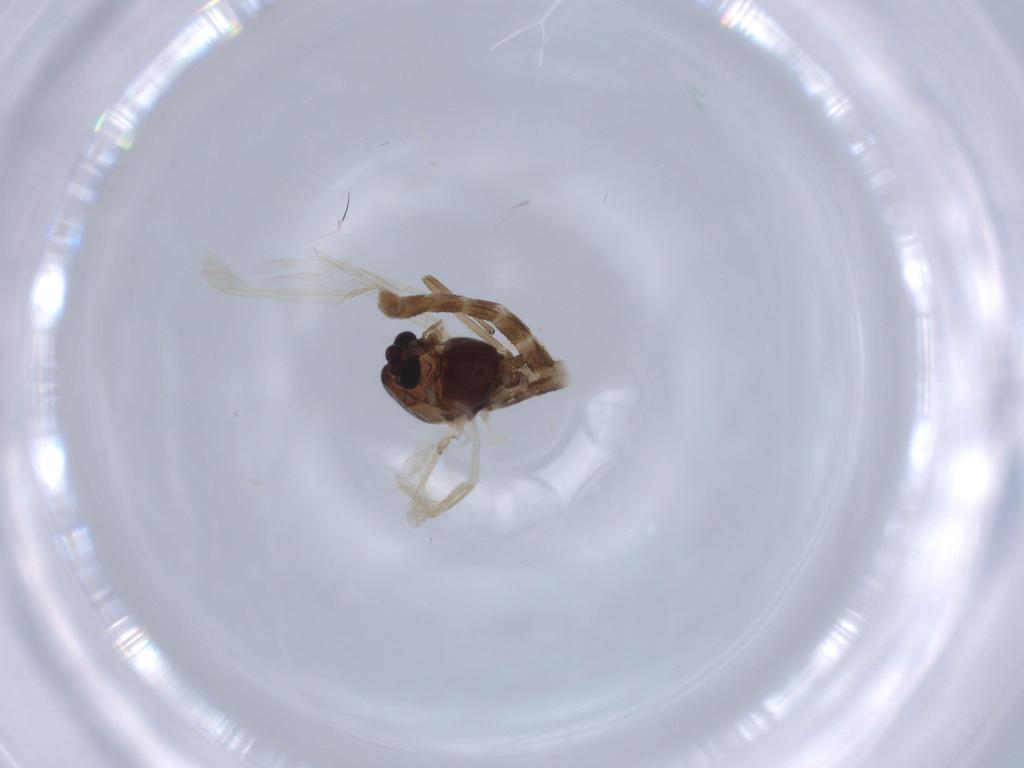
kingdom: Animalia
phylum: Arthropoda
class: Insecta
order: Diptera
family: Chironomidae
